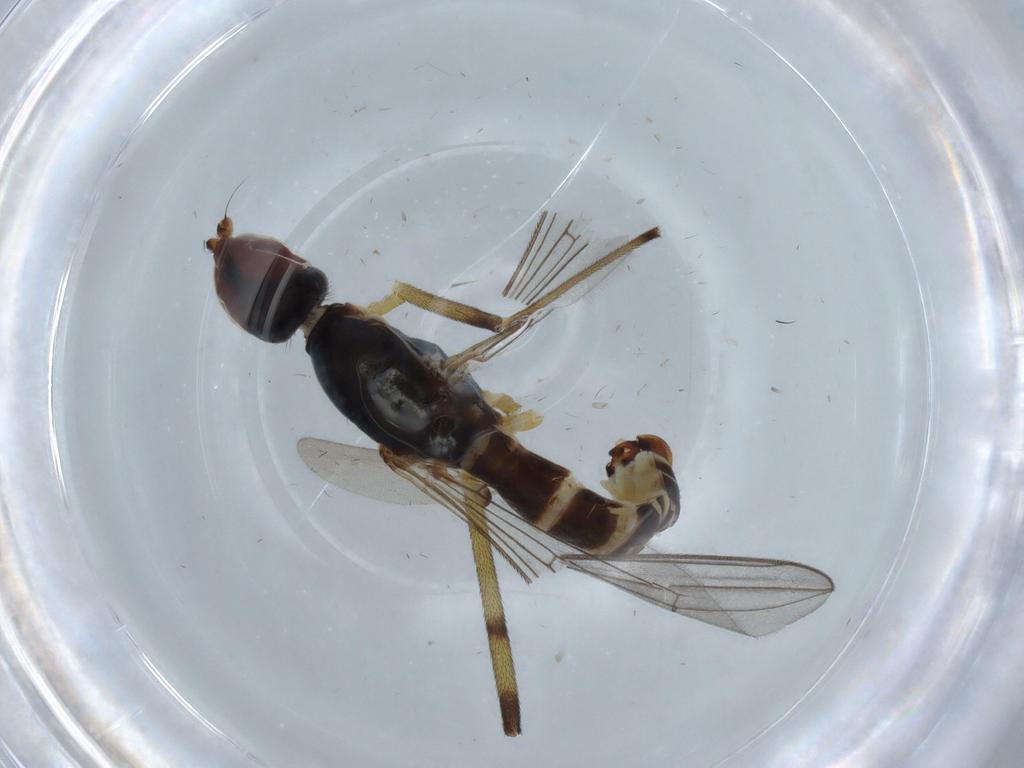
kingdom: Animalia
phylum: Arthropoda
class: Insecta
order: Diptera
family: Micropezidae
